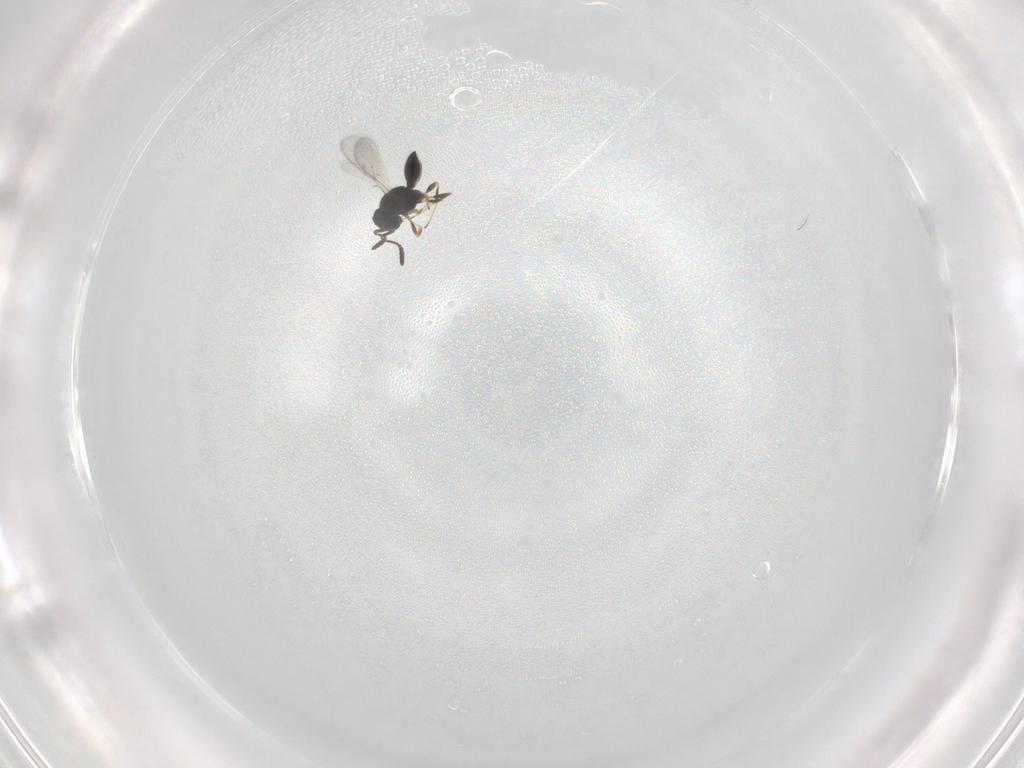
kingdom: Animalia
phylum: Arthropoda
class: Insecta
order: Hymenoptera
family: Scelionidae
